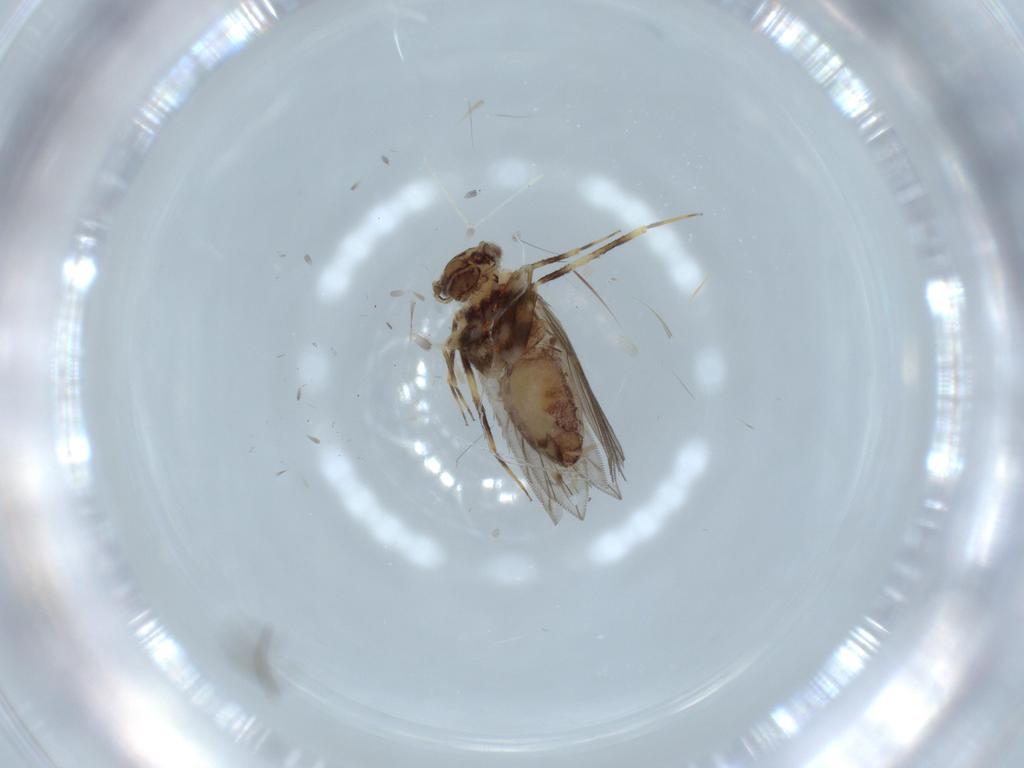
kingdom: Animalia
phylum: Arthropoda
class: Insecta
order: Psocodea
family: Lepidopsocidae
